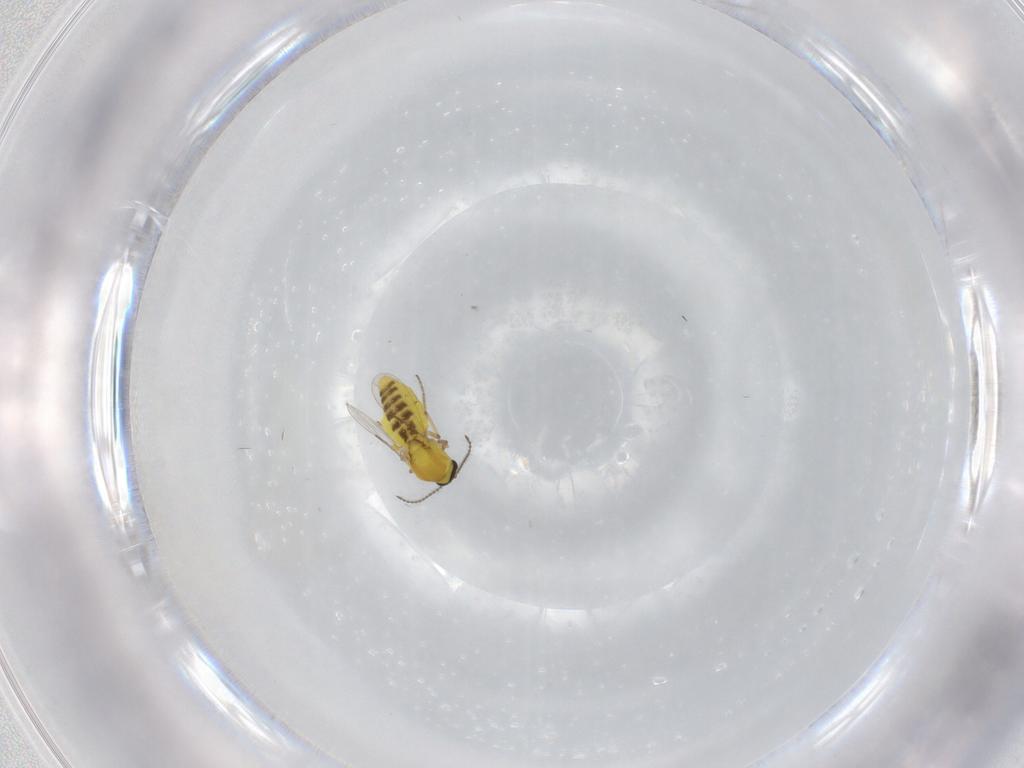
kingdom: Animalia
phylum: Arthropoda
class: Insecta
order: Diptera
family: Ceratopogonidae
